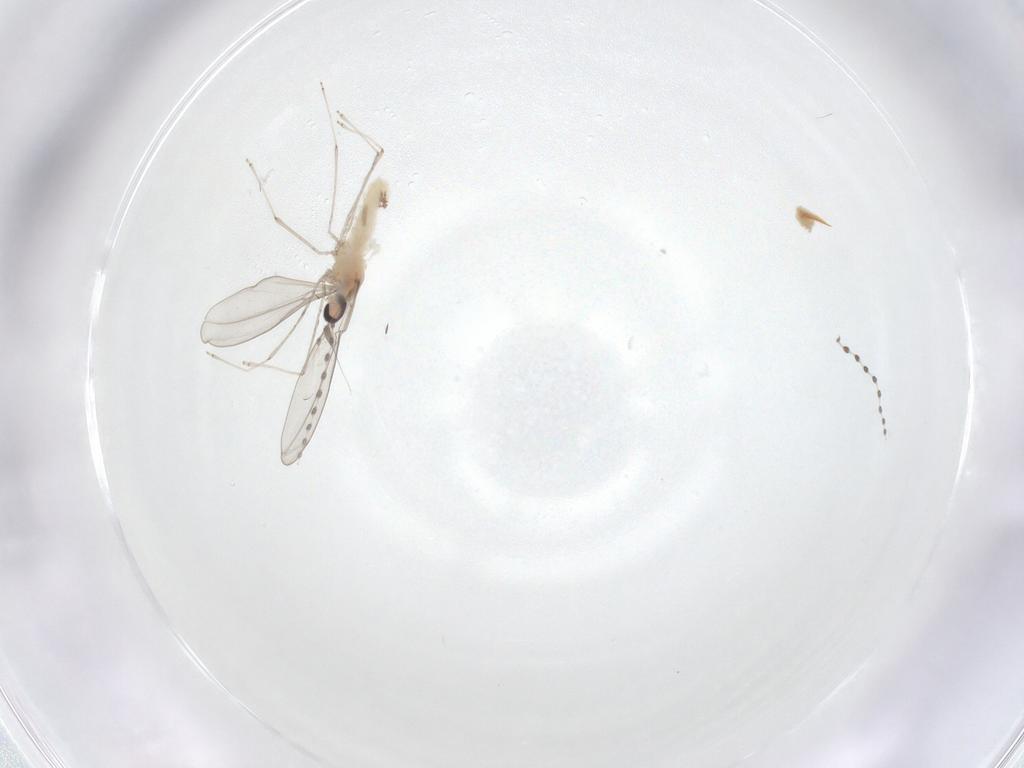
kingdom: Animalia
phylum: Arthropoda
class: Insecta
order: Diptera
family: Cecidomyiidae
